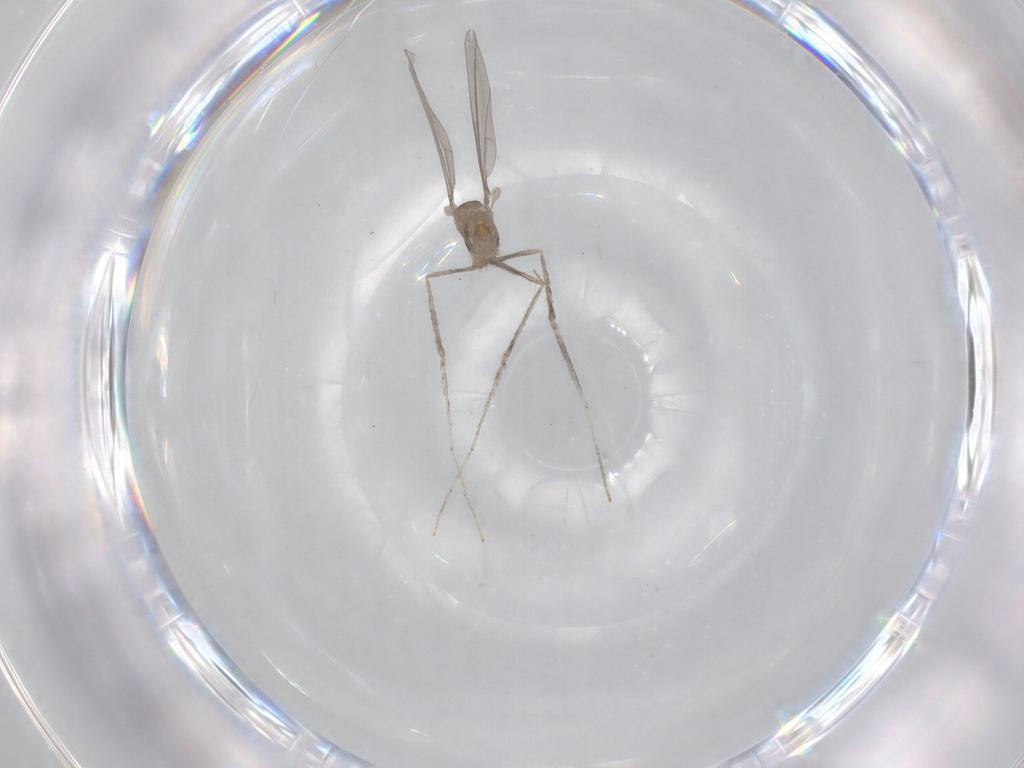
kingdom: Animalia
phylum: Arthropoda
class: Insecta
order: Diptera
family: Cecidomyiidae
